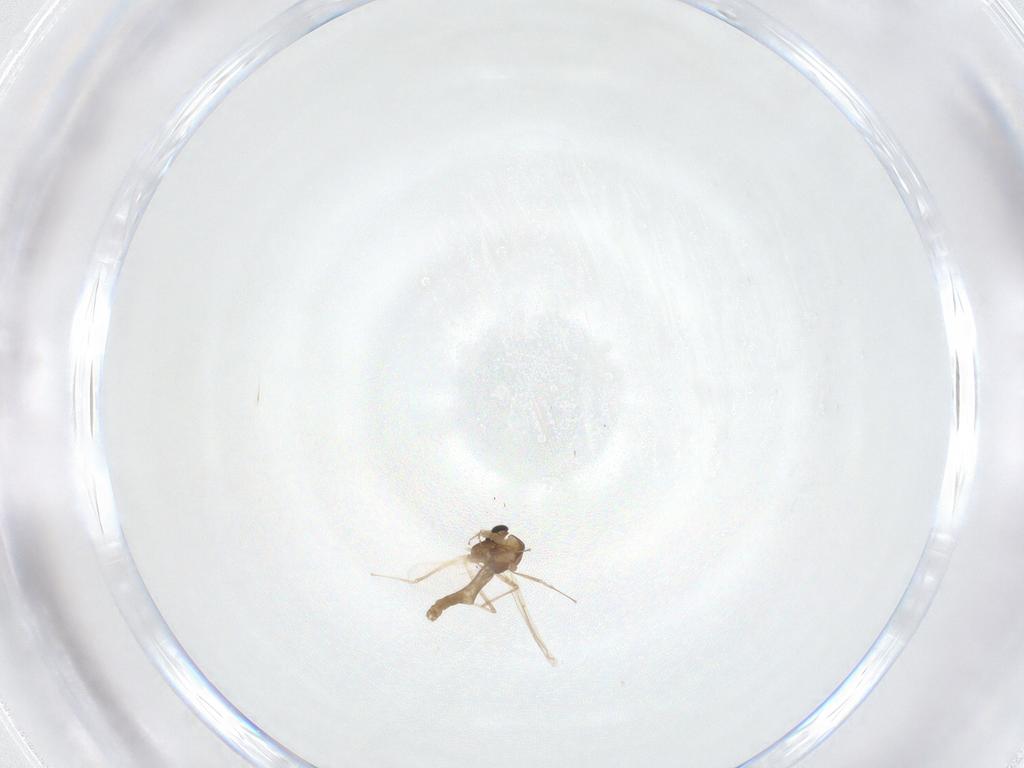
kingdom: Animalia
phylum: Arthropoda
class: Insecta
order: Diptera
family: Chironomidae
